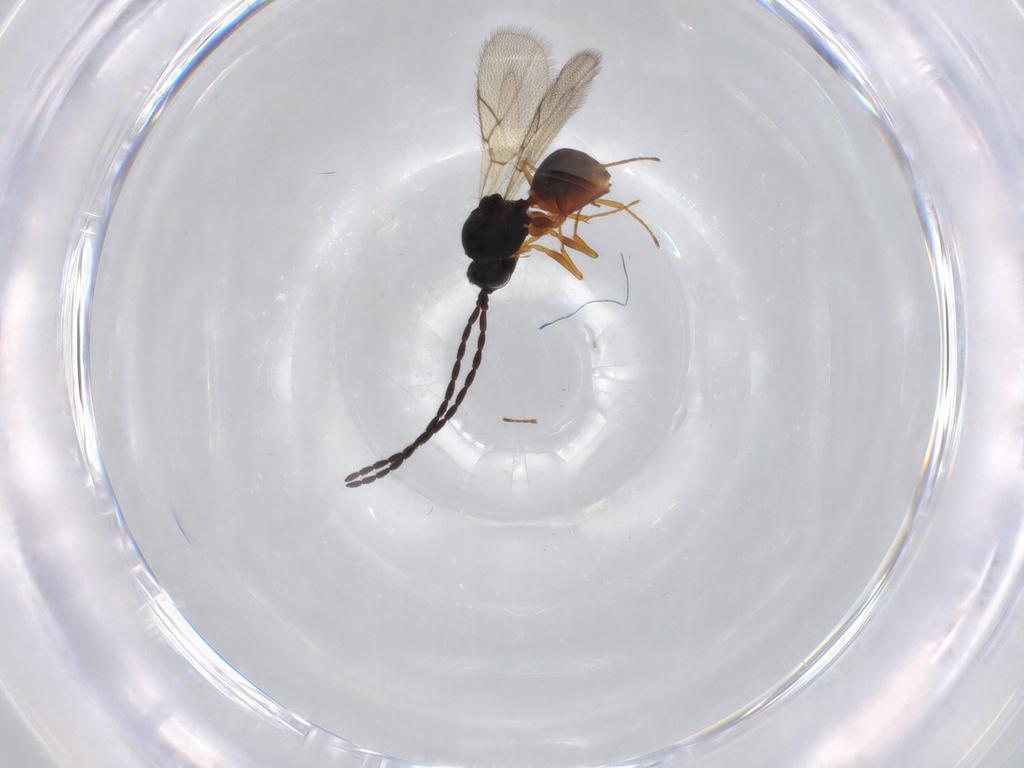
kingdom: Animalia
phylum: Arthropoda
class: Insecta
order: Hymenoptera
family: Figitidae
